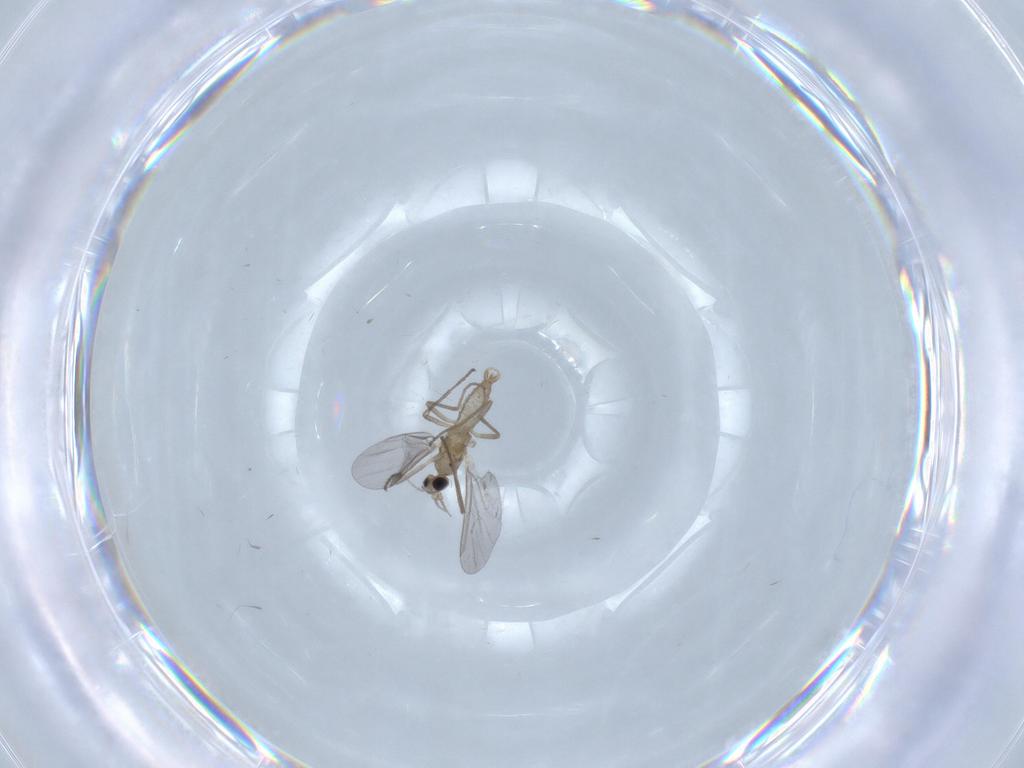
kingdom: Animalia
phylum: Arthropoda
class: Insecta
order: Diptera
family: Cecidomyiidae
